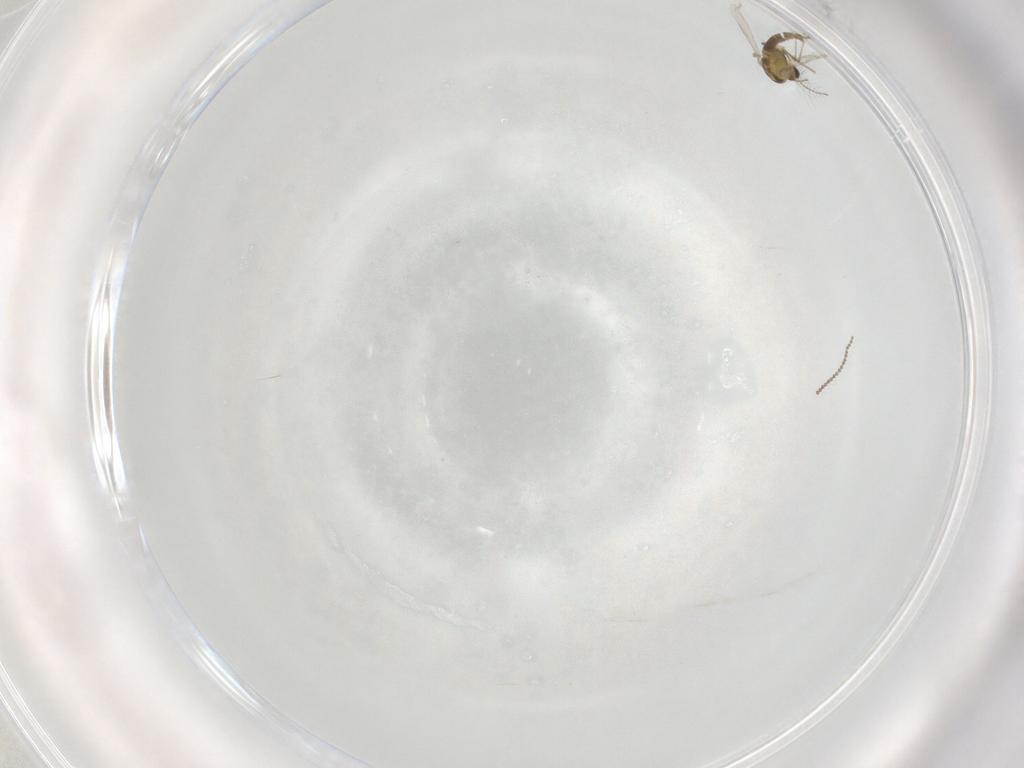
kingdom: Animalia
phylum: Arthropoda
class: Insecta
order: Diptera
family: Chironomidae
